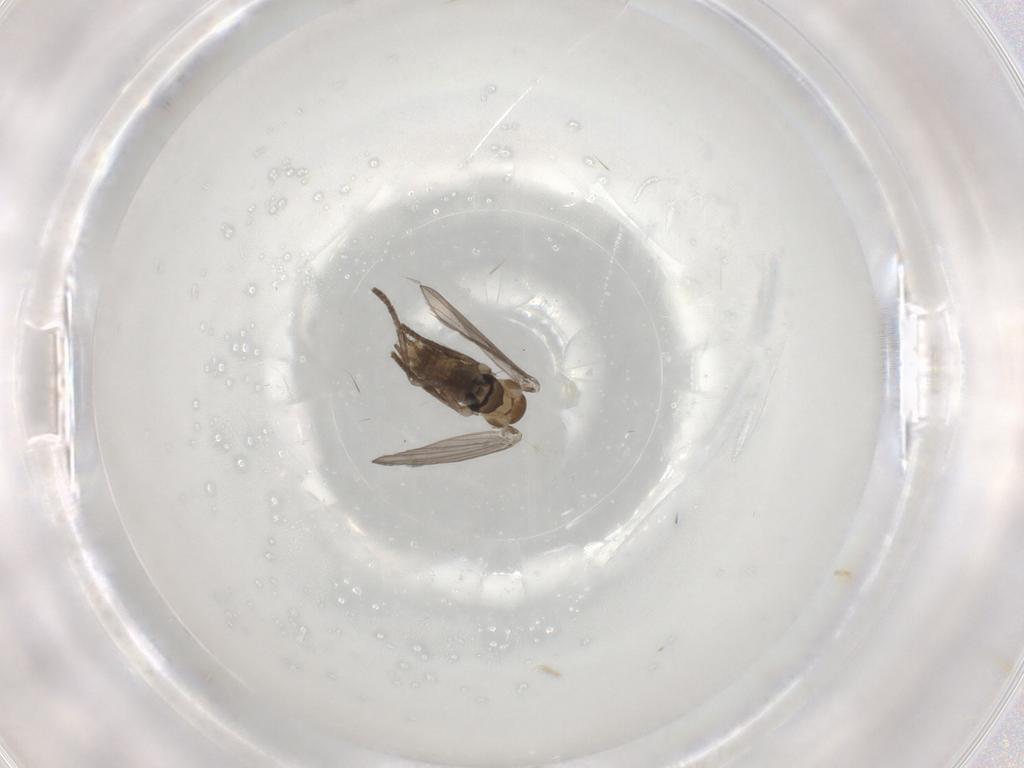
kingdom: Animalia
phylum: Arthropoda
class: Insecta
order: Diptera
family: Psychodidae
